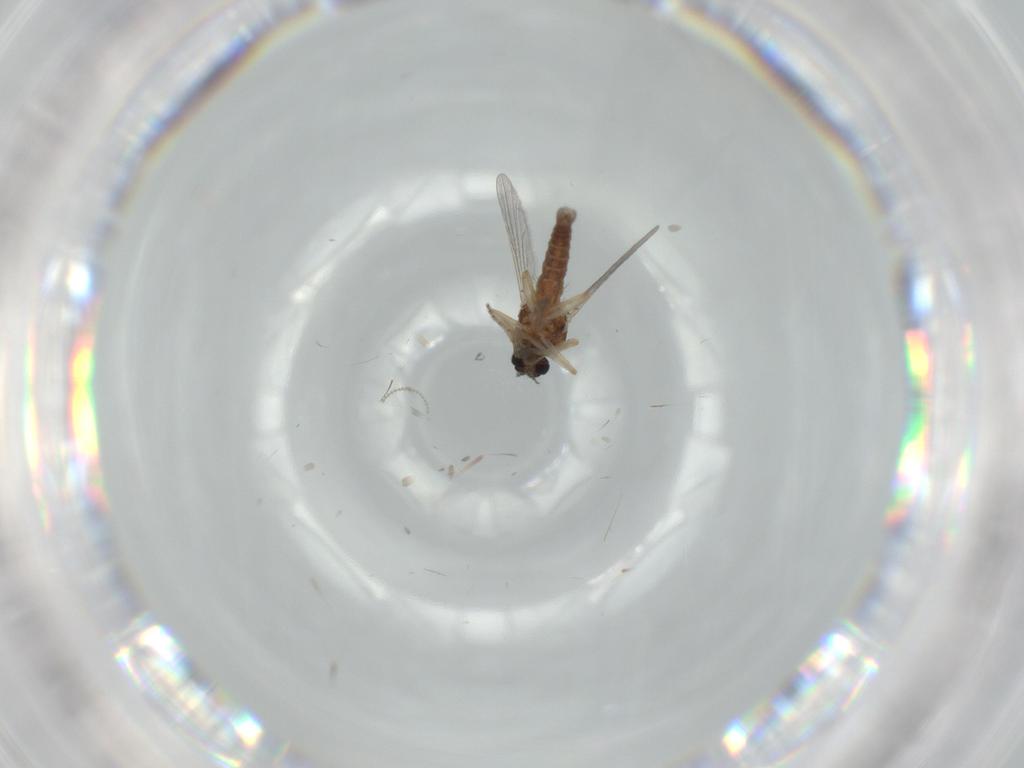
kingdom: Animalia
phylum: Arthropoda
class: Insecta
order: Diptera
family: Ceratopogonidae
